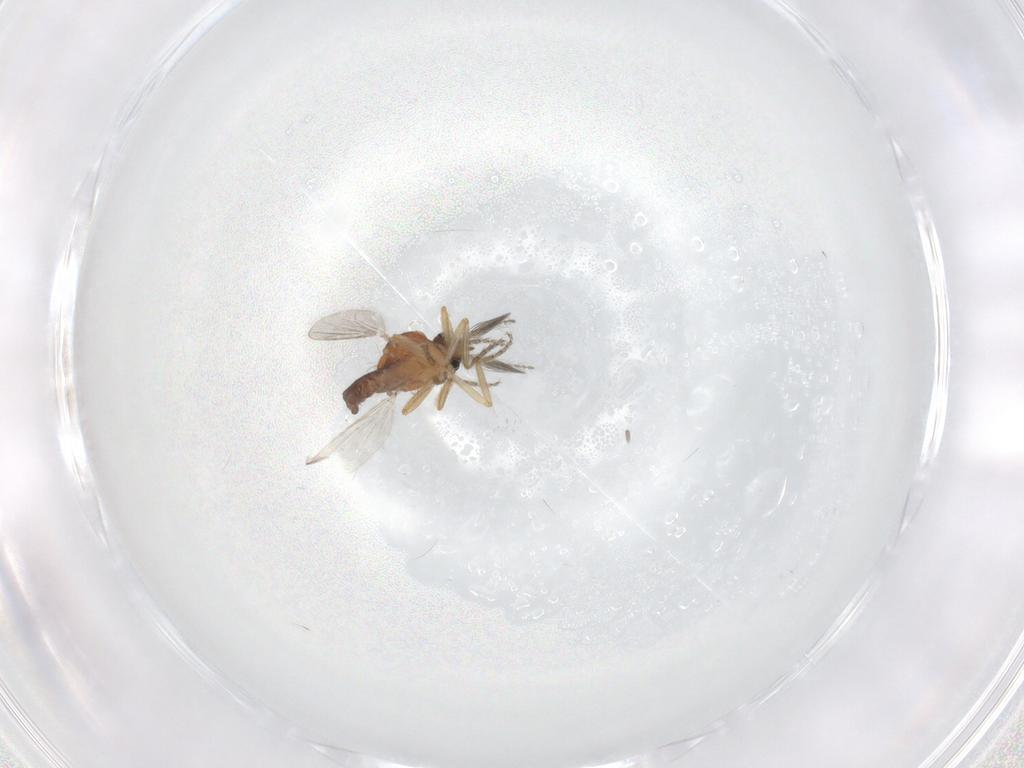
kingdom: Animalia
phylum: Arthropoda
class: Insecta
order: Diptera
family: Ceratopogonidae
